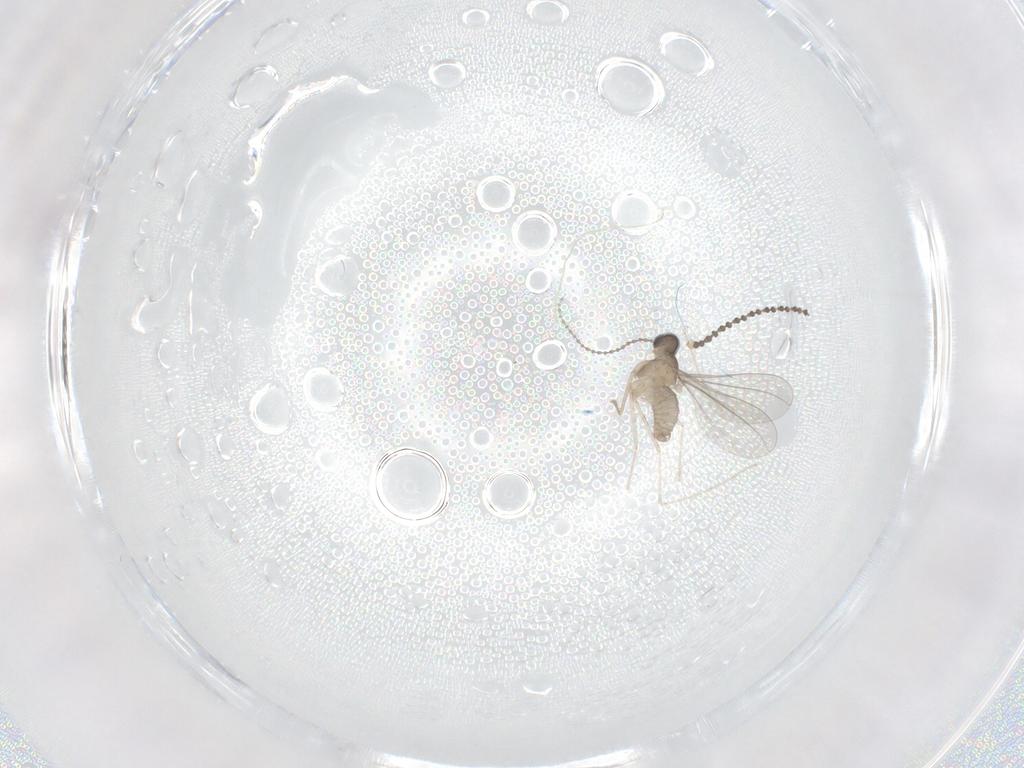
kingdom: Animalia
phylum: Arthropoda
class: Insecta
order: Diptera
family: Cecidomyiidae
